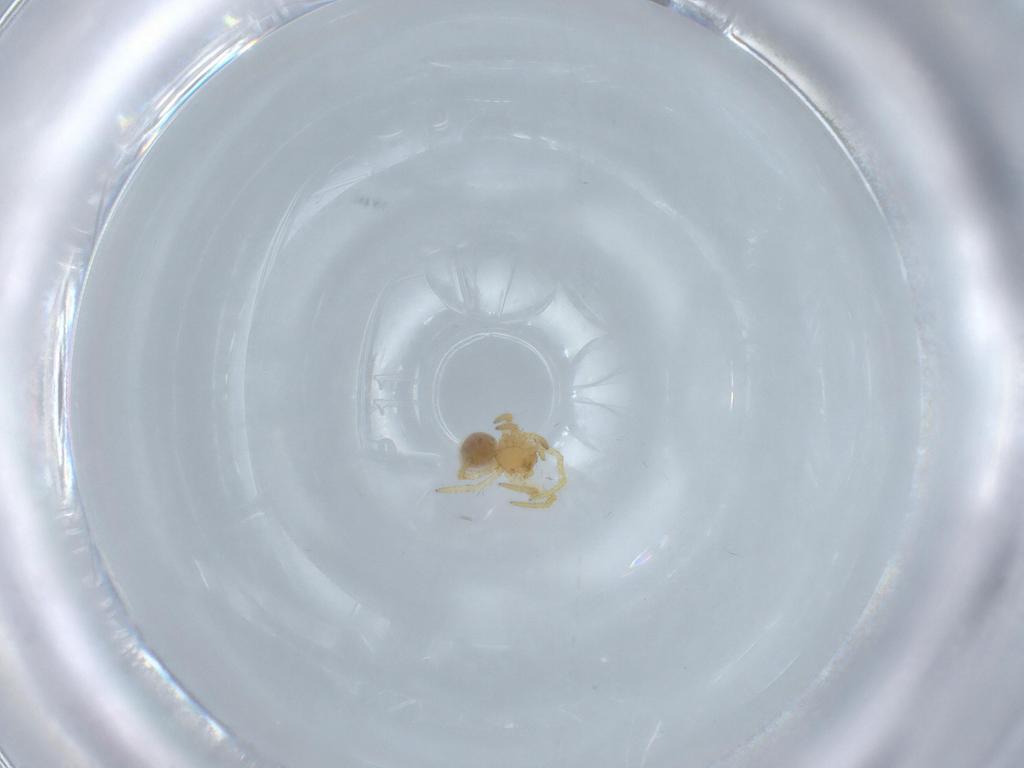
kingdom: Animalia
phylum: Arthropoda
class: Arachnida
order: Araneae
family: Theridiidae
